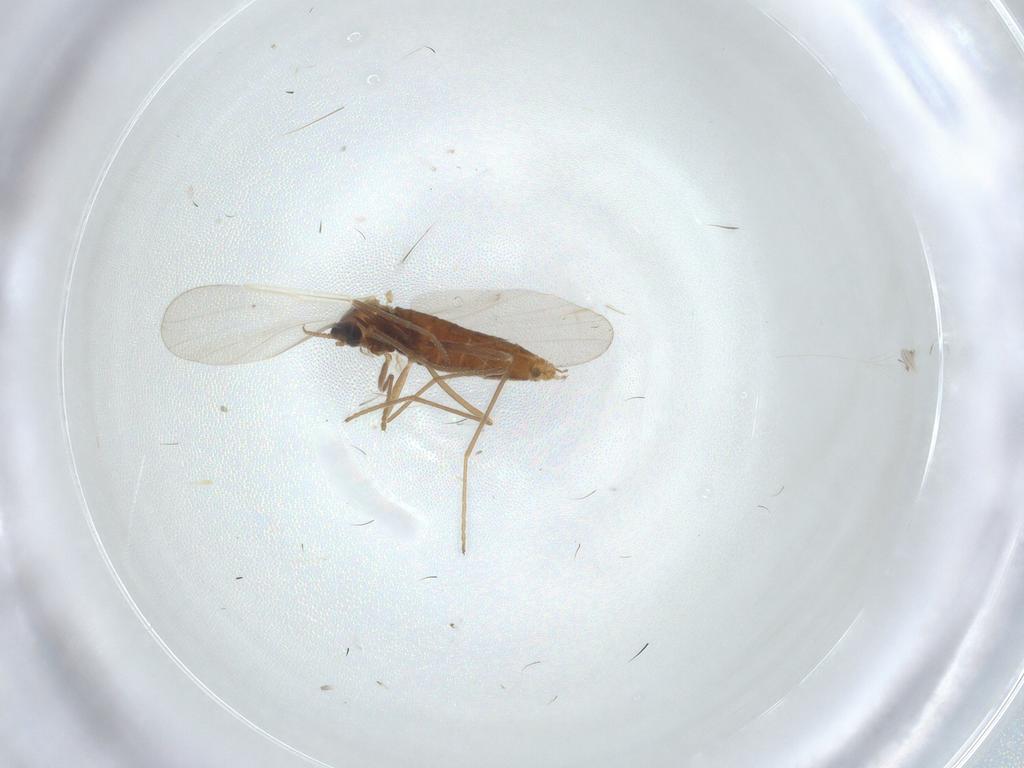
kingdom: Animalia
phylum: Arthropoda
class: Insecta
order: Diptera
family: Cecidomyiidae
